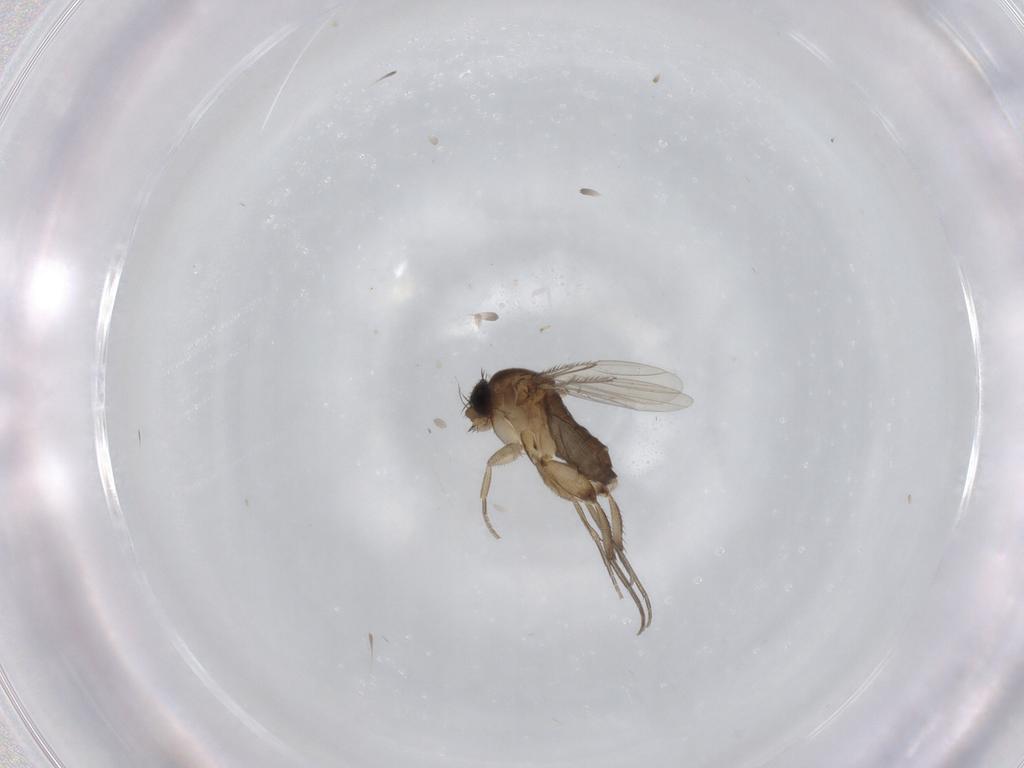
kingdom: Animalia
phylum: Arthropoda
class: Insecta
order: Diptera
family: Phoridae
